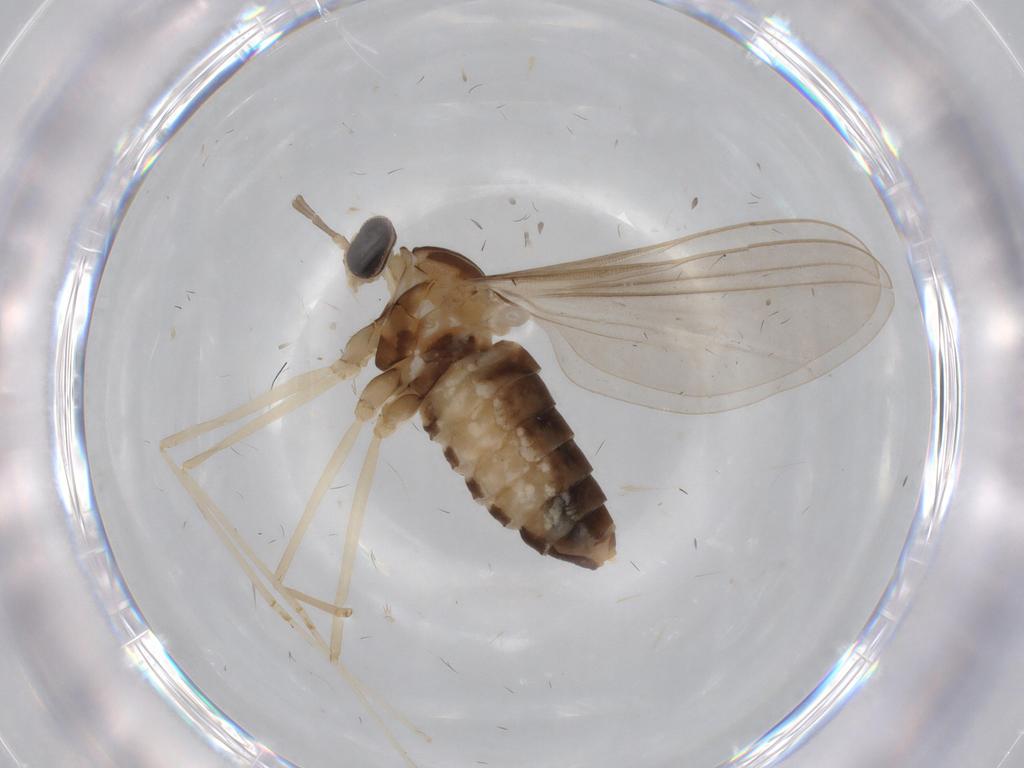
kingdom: Animalia
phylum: Arthropoda
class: Insecta
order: Diptera
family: Cecidomyiidae
